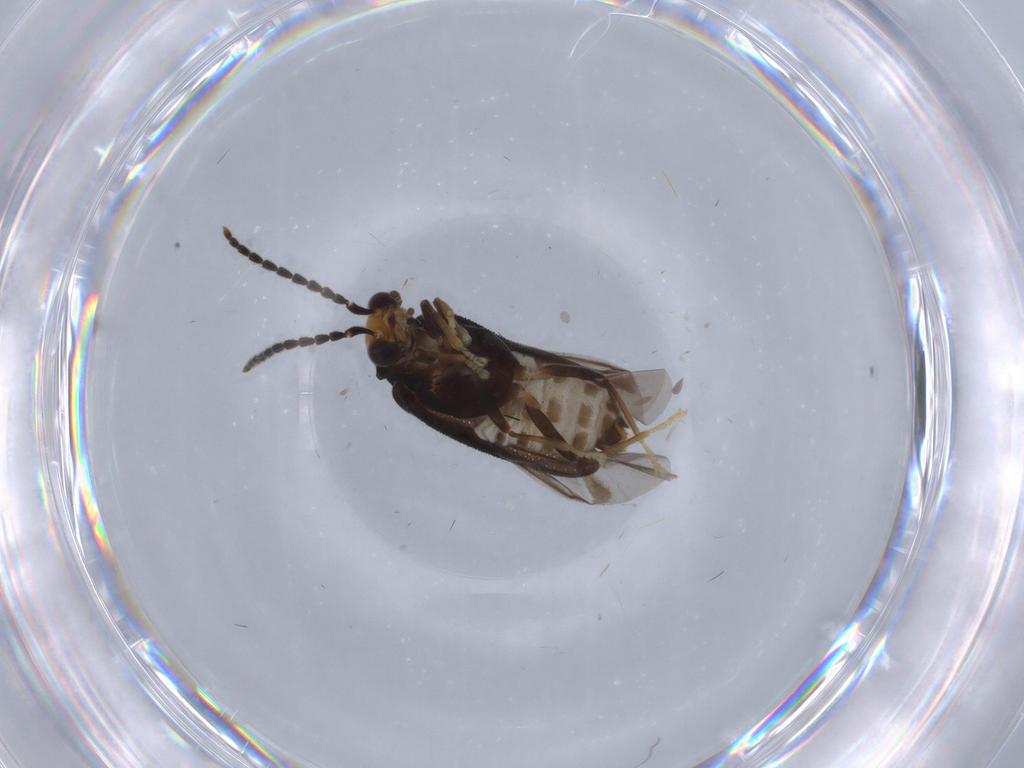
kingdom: Animalia
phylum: Arthropoda
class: Insecta
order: Coleoptera
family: Cantharidae
